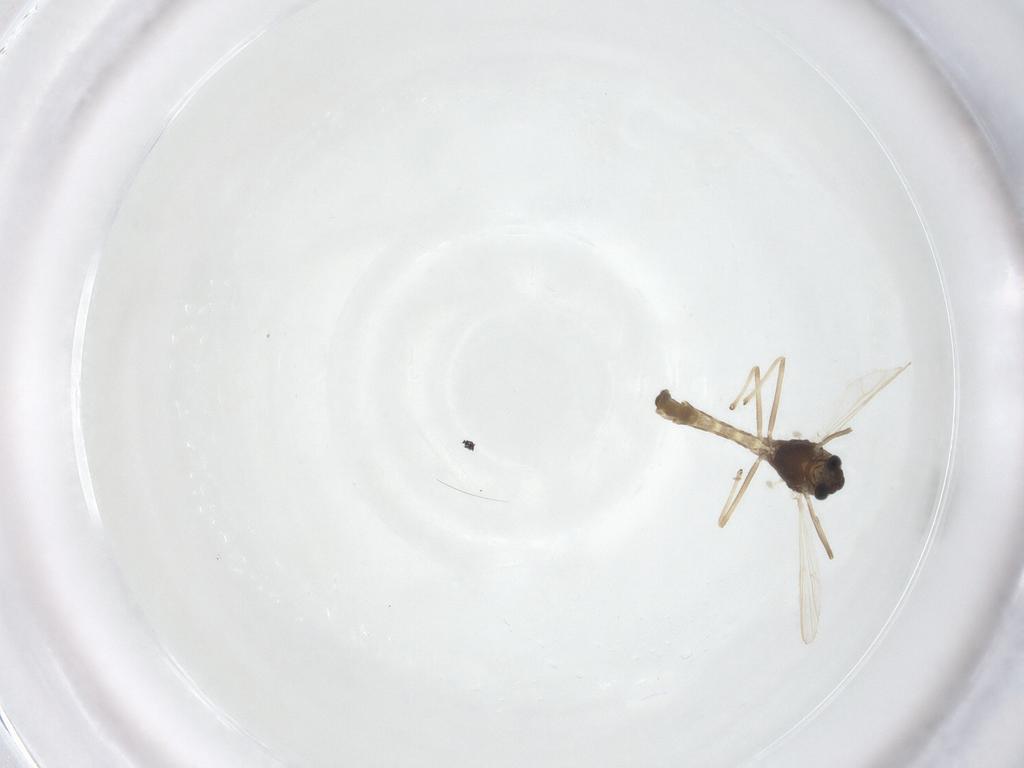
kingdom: Animalia
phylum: Arthropoda
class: Insecta
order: Diptera
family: Chironomidae
